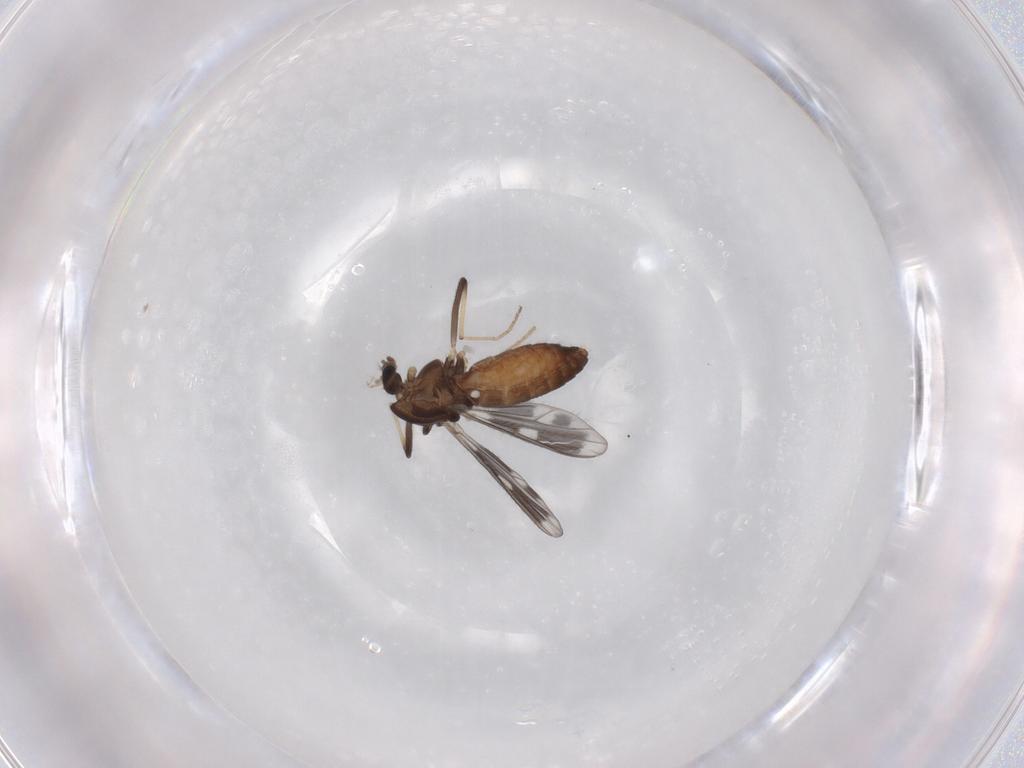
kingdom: Animalia
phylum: Arthropoda
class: Insecta
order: Diptera
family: Chironomidae
